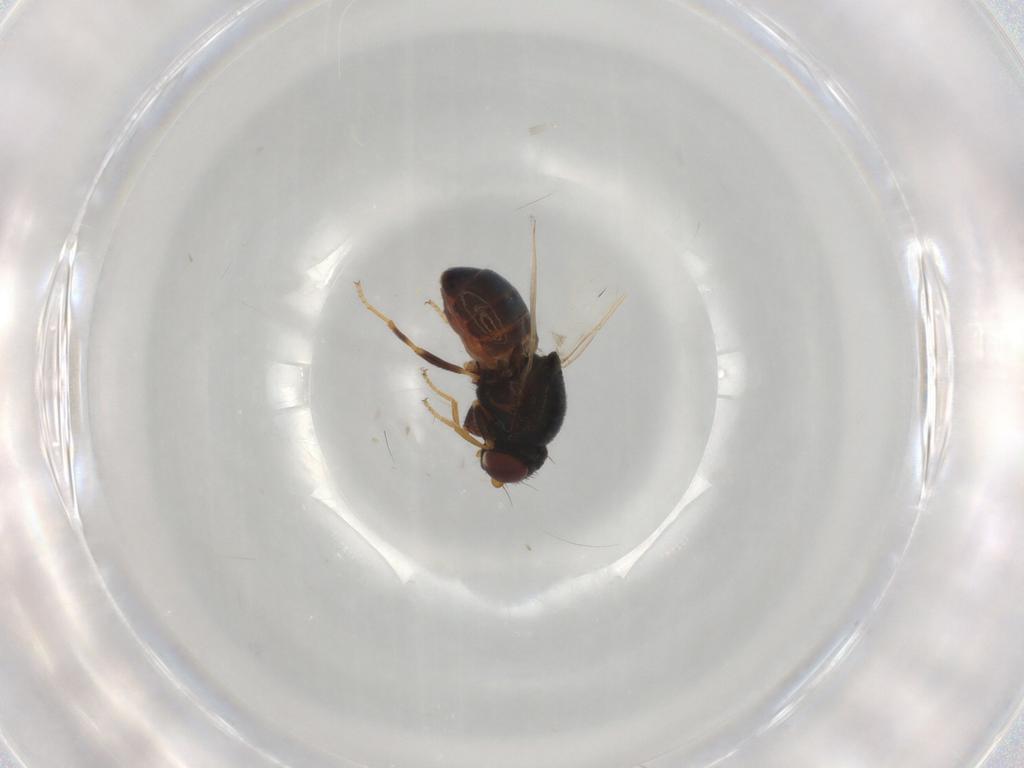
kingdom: Animalia
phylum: Arthropoda
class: Insecta
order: Diptera
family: Chloropidae
